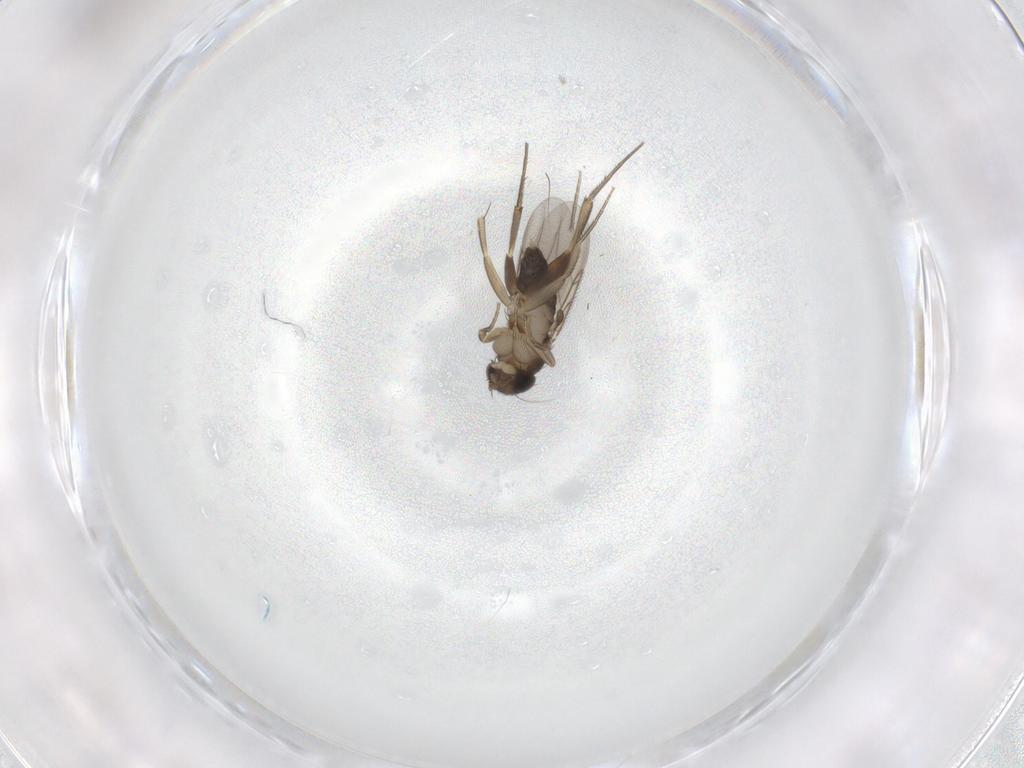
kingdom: Animalia
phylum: Arthropoda
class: Insecta
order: Diptera
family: Phoridae
